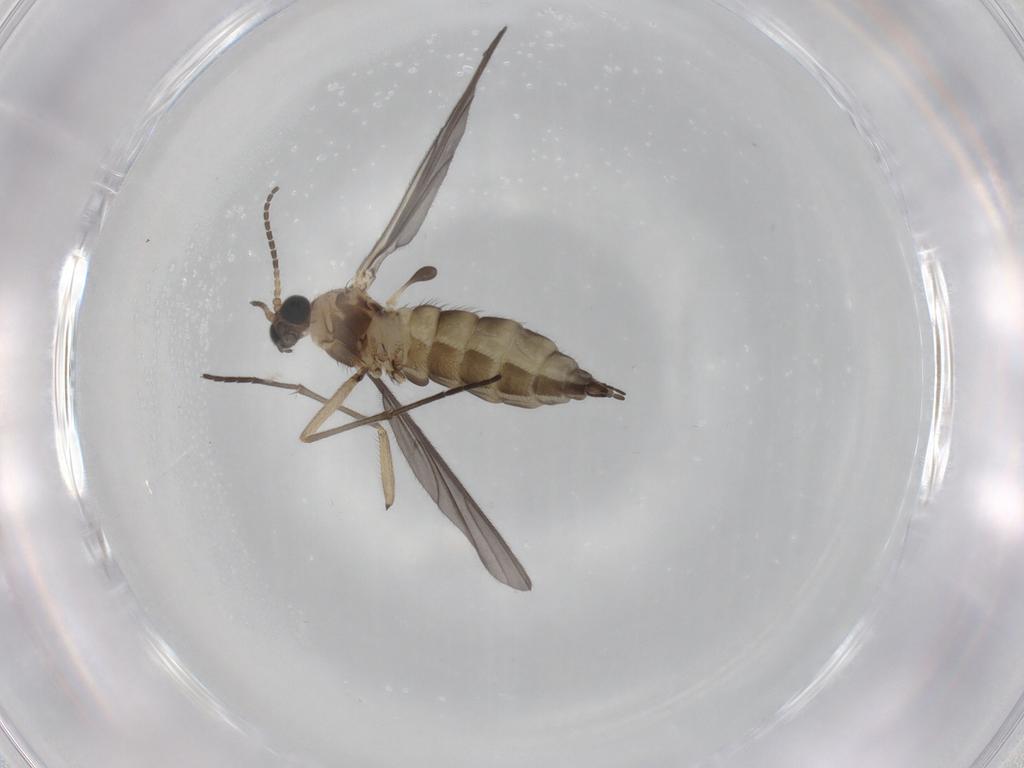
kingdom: Animalia
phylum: Arthropoda
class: Insecta
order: Diptera
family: Sciaridae
